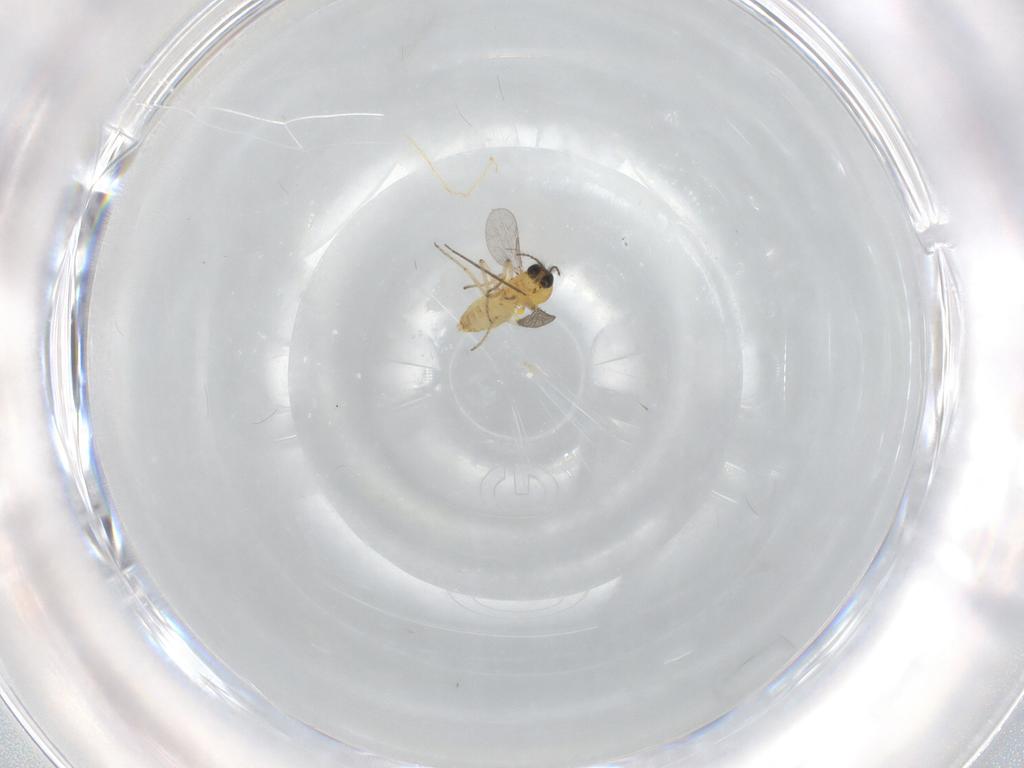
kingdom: Animalia
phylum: Arthropoda
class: Insecta
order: Diptera
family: Ceratopogonidae
